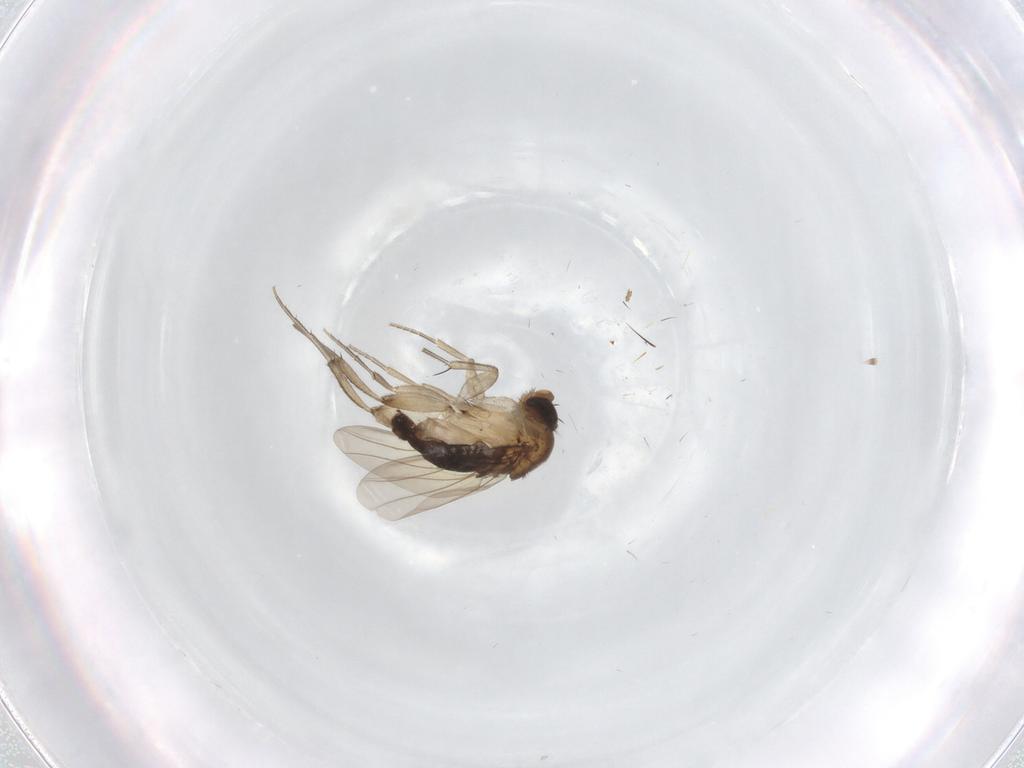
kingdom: Animalia
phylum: Arthropoda
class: Insecta
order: Diptera
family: Phoridae
